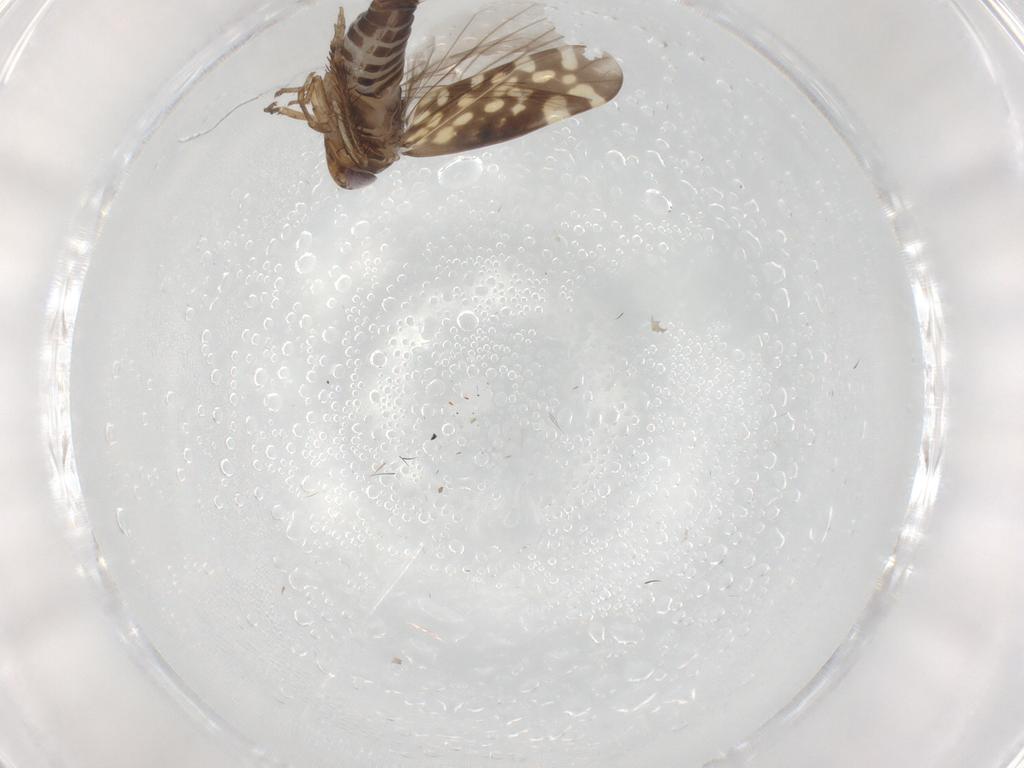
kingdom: Animalia
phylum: Arthropoda
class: Insecta
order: Hemiptera
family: Cicadellidae
